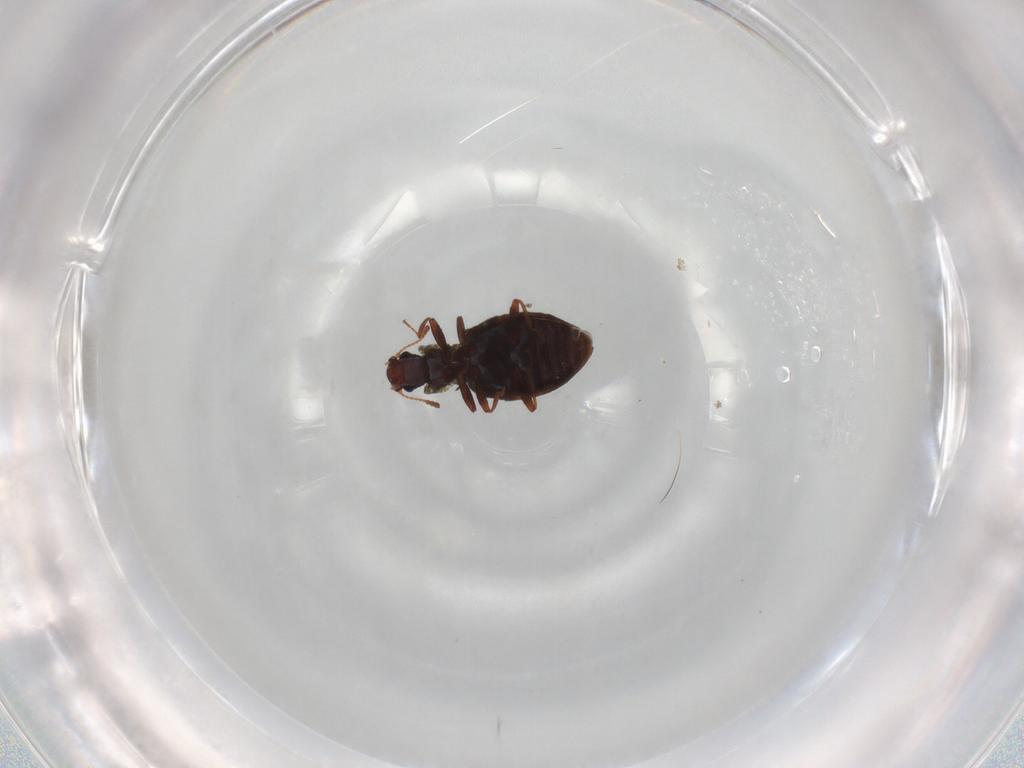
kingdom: Animalia
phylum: Arthropoda
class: Insecta
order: Coleoptera
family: Latridiidae
